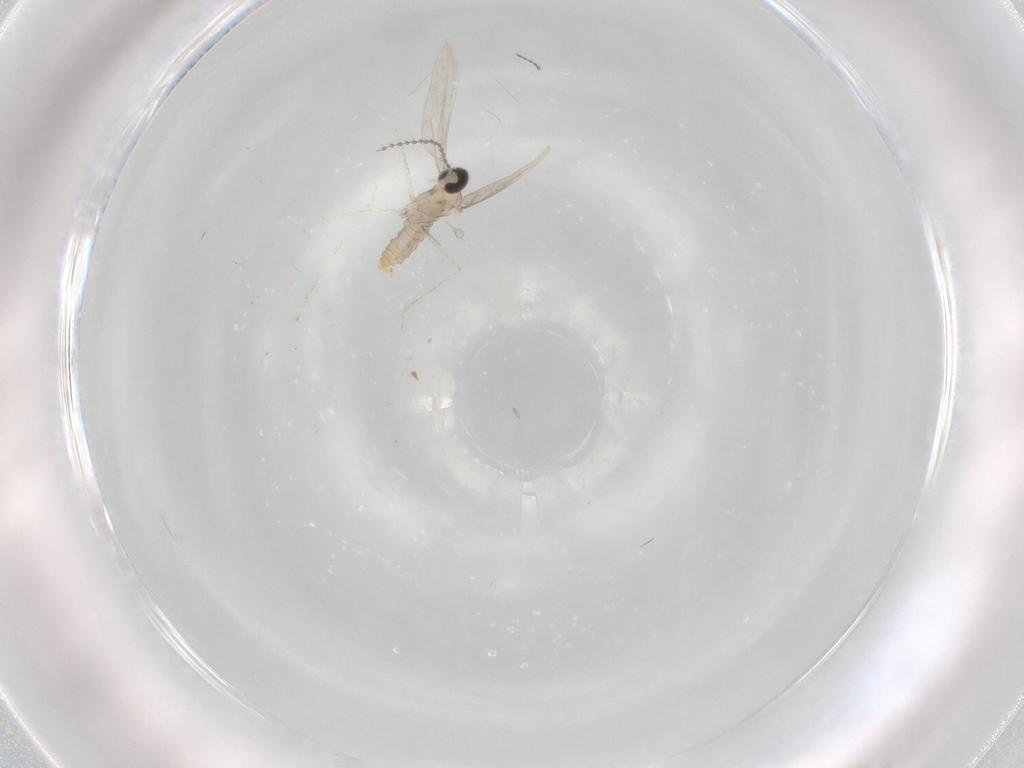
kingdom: Animalia
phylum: Arthropoda
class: Insecta
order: Diptera
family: Cecidomyiidae
